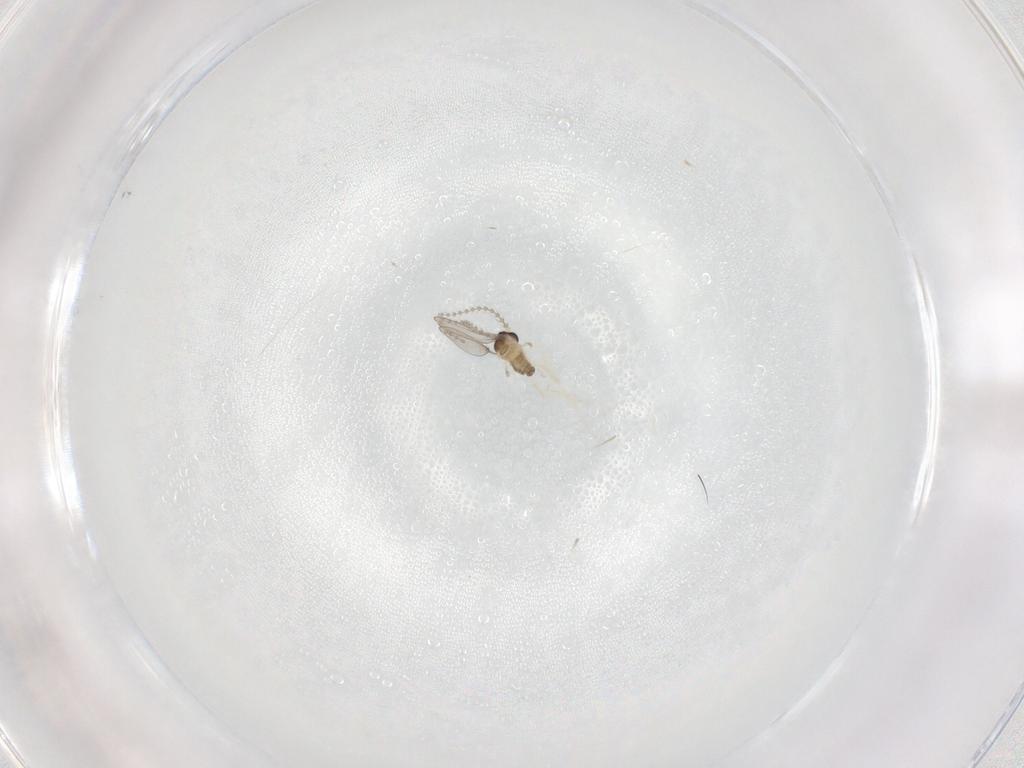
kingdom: Animalia
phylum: Arthropoda
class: Insecta
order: Diptera
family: Cecidomyiidae
